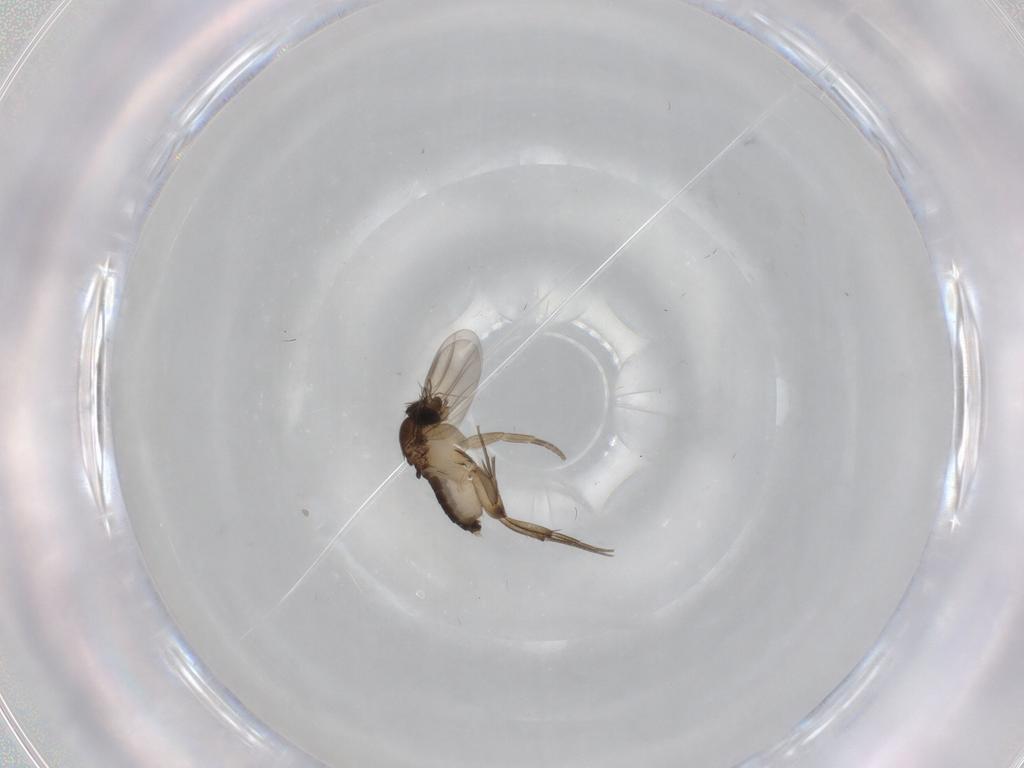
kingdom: Animalia
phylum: Arthropoda
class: Insecta
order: Diptera
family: Phoridae
